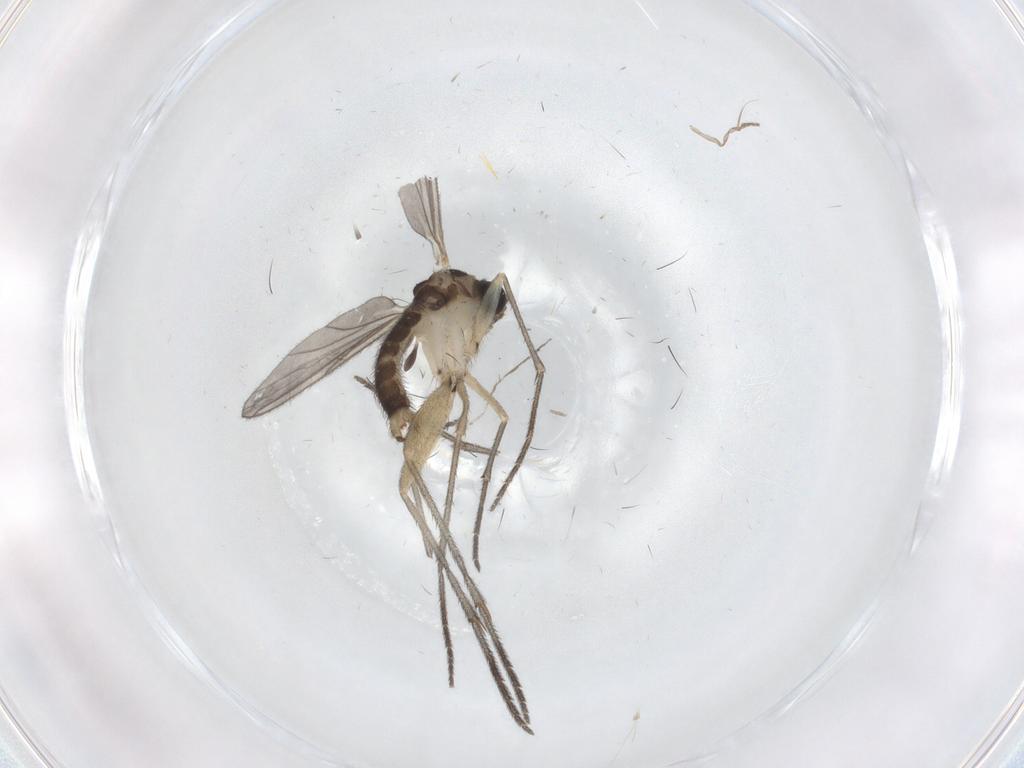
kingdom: Animalia
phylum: Arthropoda
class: Insecta
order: Diptera
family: Sciaridae
